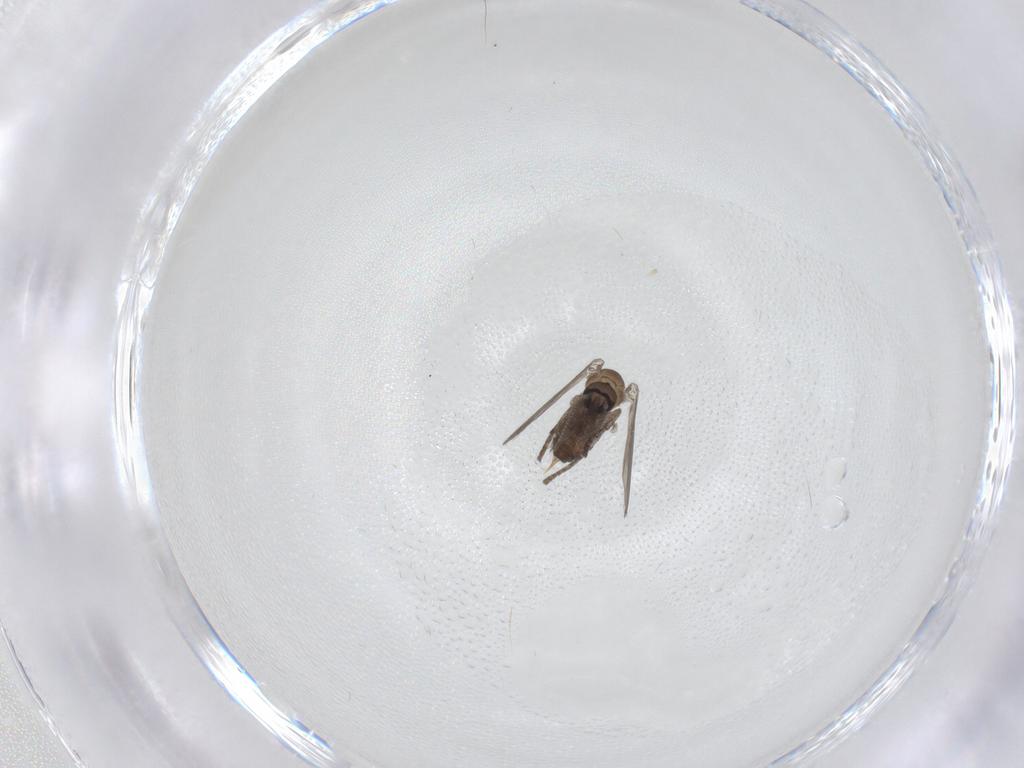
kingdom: Animalia
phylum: Arthropoda
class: Insecta
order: Diptera
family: Psychodidae
